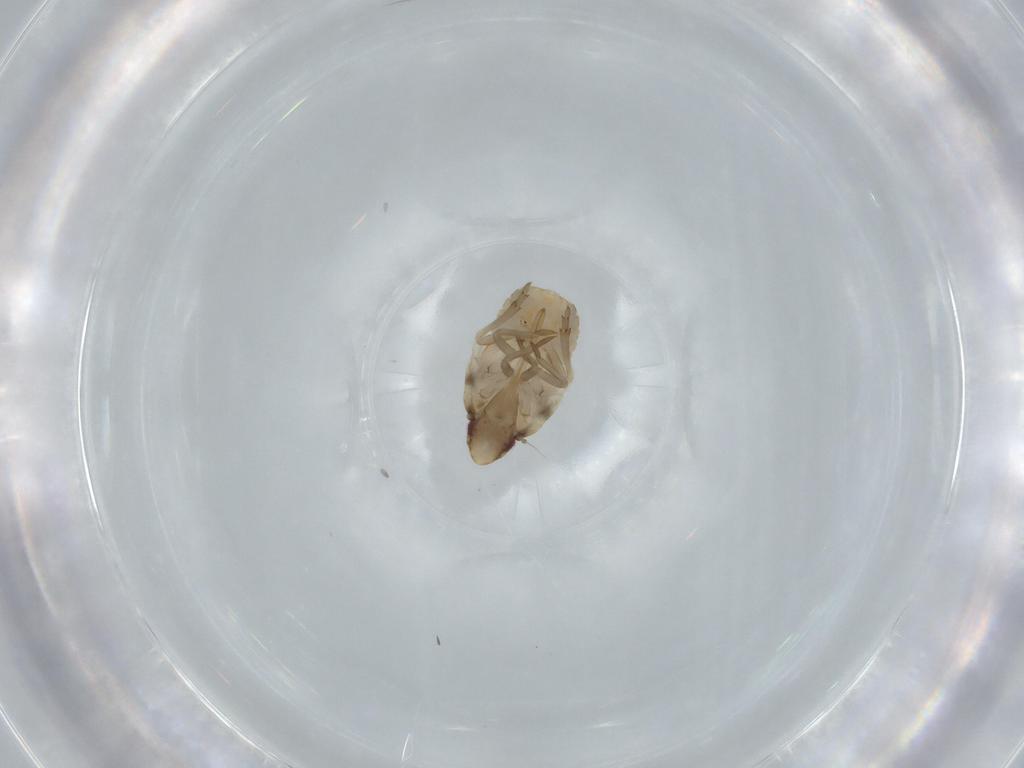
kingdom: Animalia
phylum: Arthropoda
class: Insecta
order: Hemiptera
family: Flatidae
